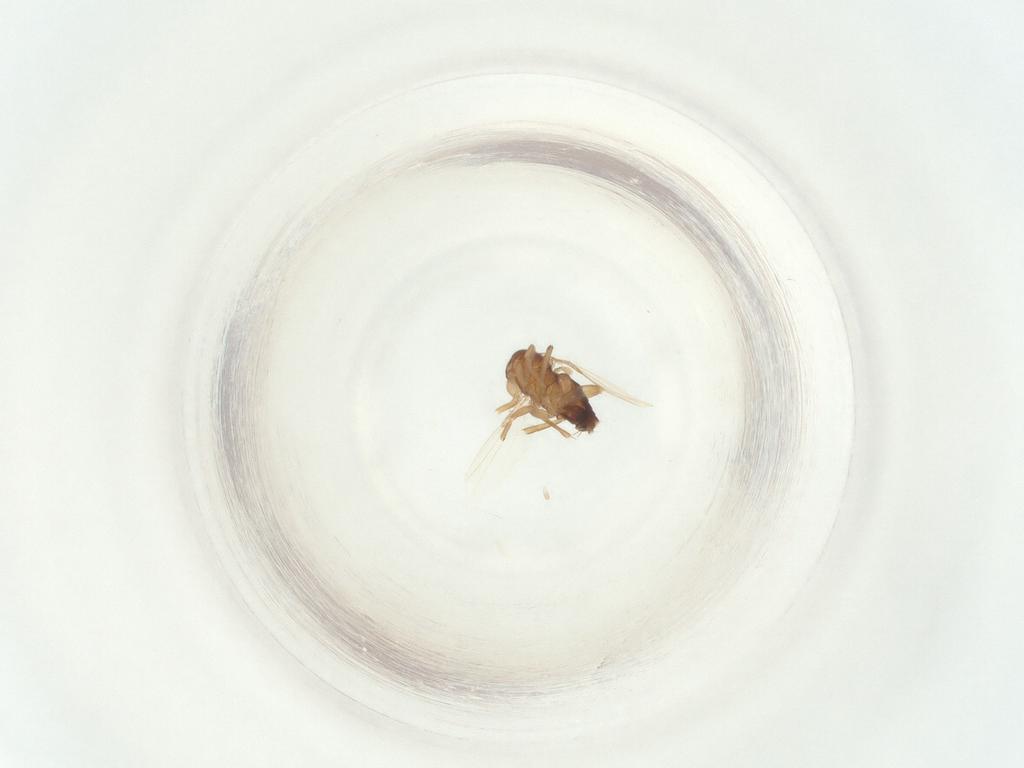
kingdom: Animalia
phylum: Arthropoda
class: Insecta
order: Diptera
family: Phoridae
